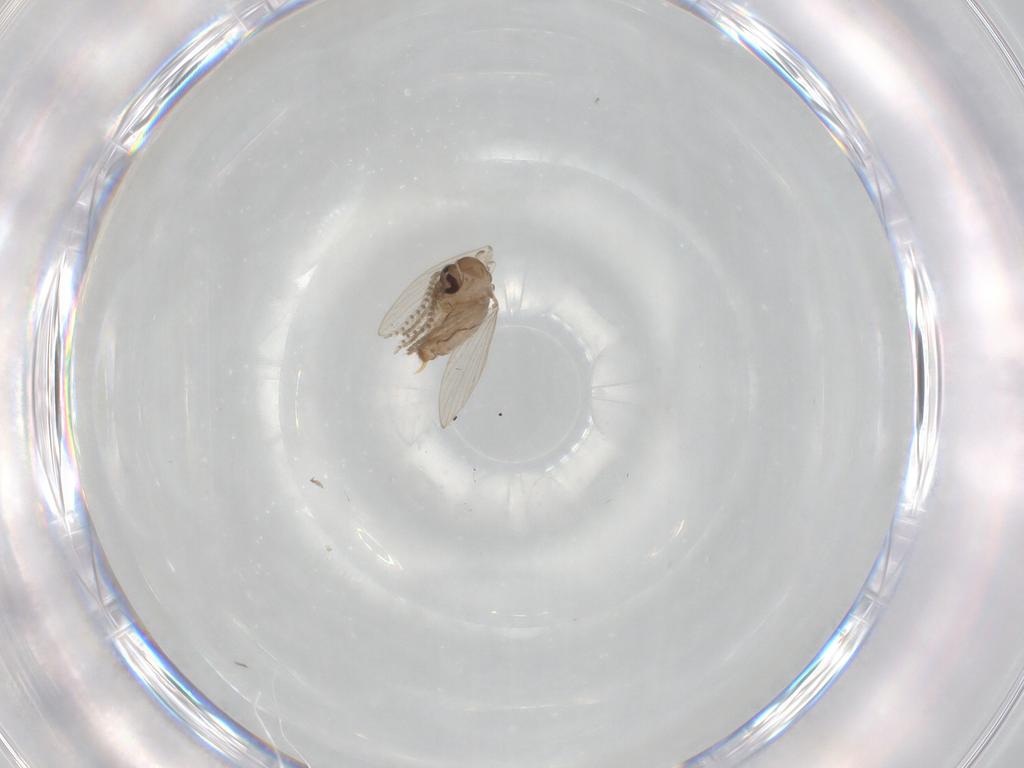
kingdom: Animalia
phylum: Arthropoda
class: Insecta
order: Diptera
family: Psychodidae
